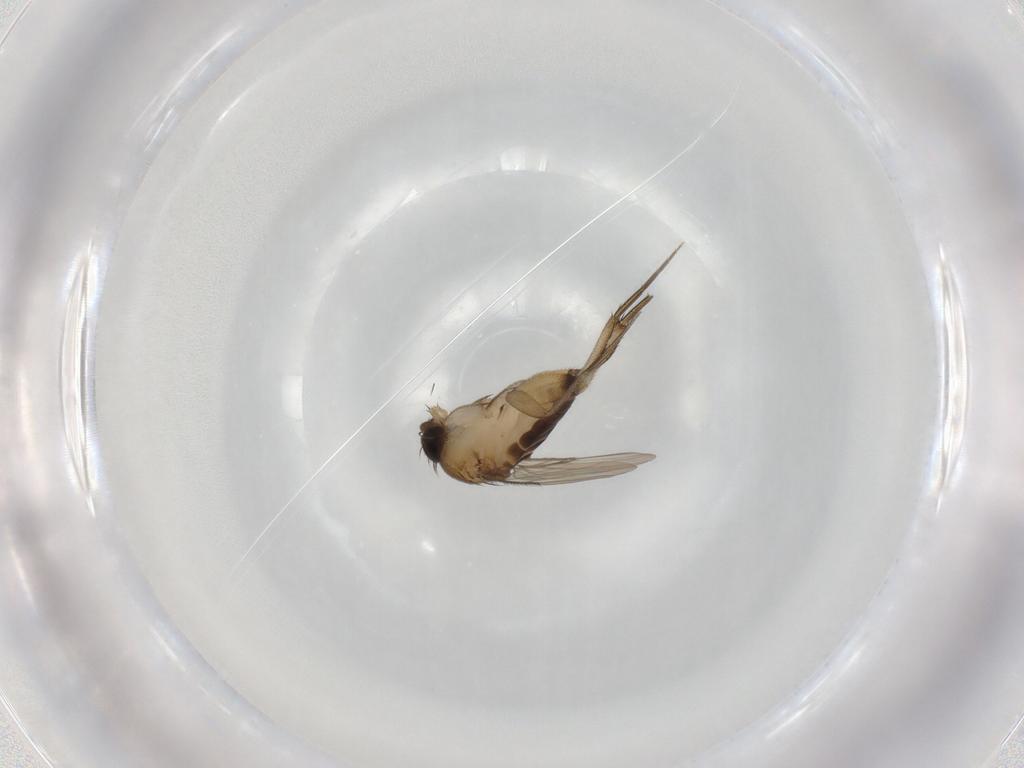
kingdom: Animalia
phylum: Arthropoda
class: Insecta
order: Diptera
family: Phoridae
